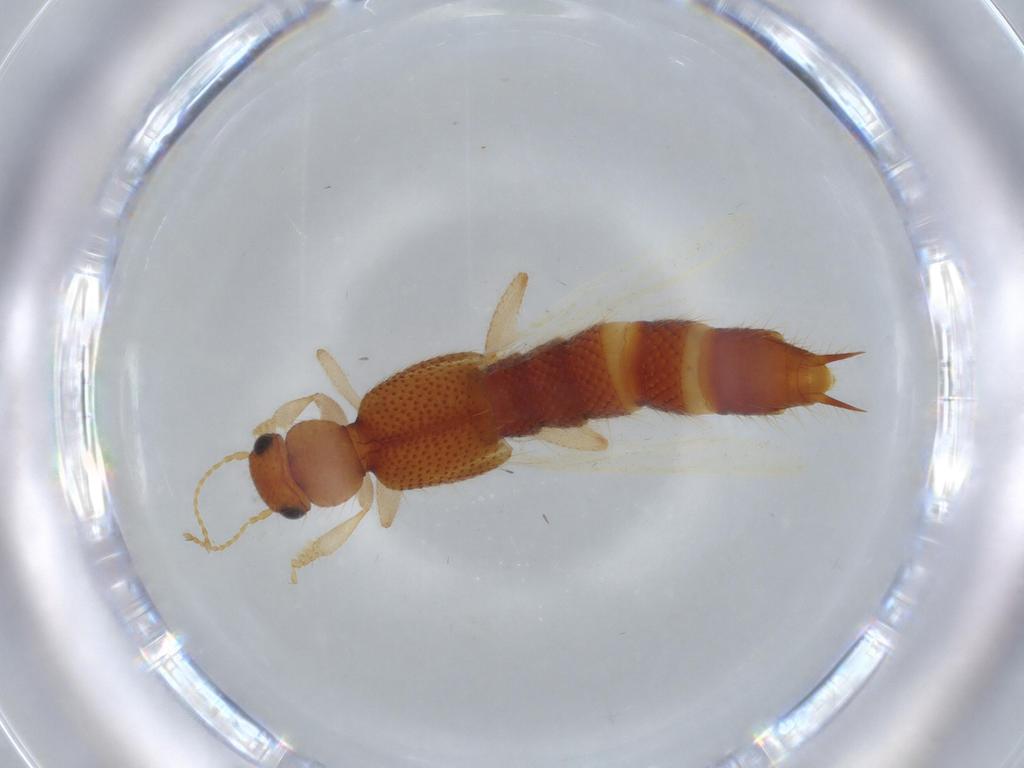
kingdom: Animalia
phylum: Arthropoda
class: Insecta
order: Coleoptera
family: Staphylinidae
